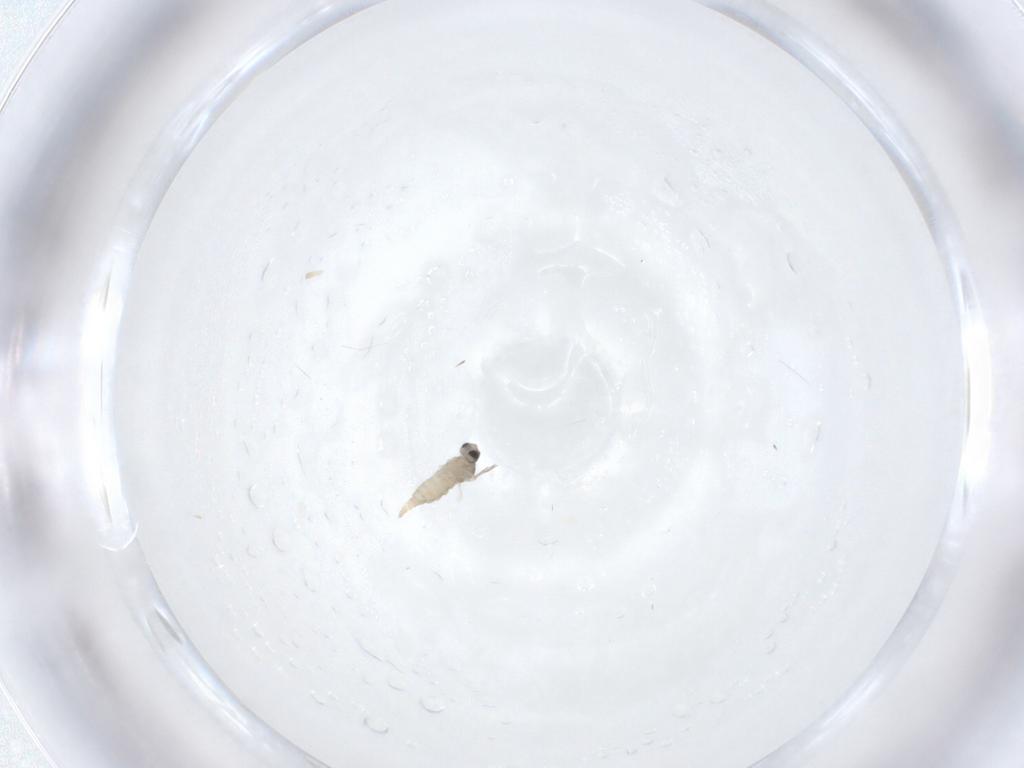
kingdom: Animalia
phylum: Arthropoda
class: Insecta
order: Diptera
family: Cecidomyiidae
